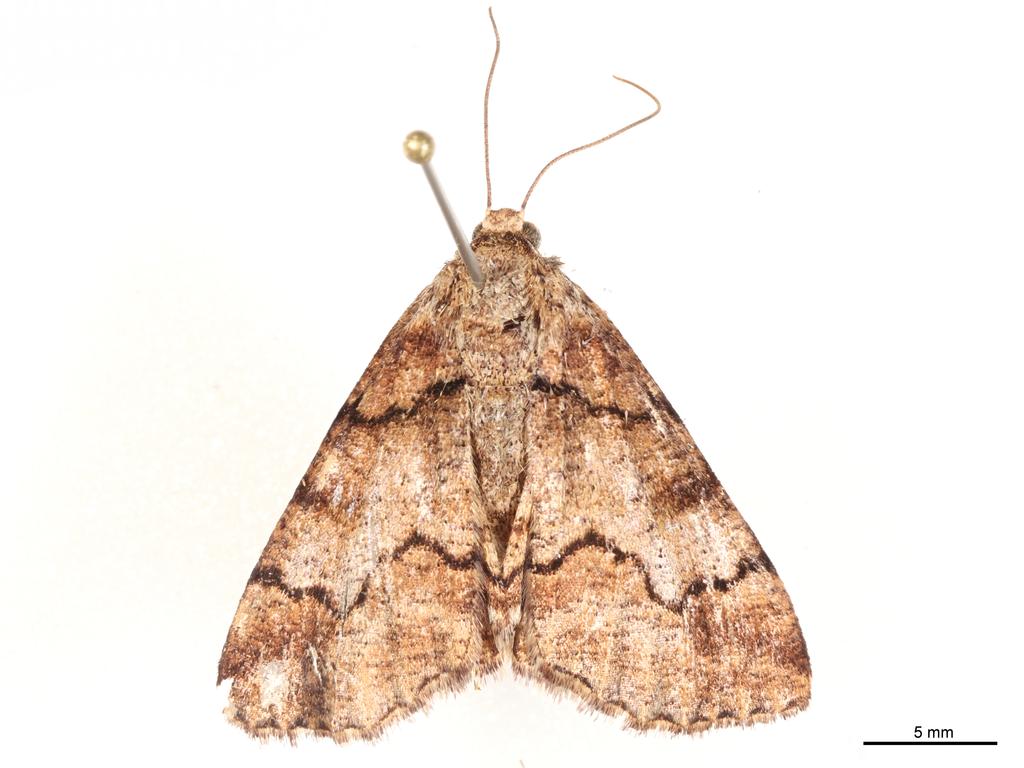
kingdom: Animalia
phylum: Arthropoda
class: Insecta
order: Lepidoptera
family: Geometridae
